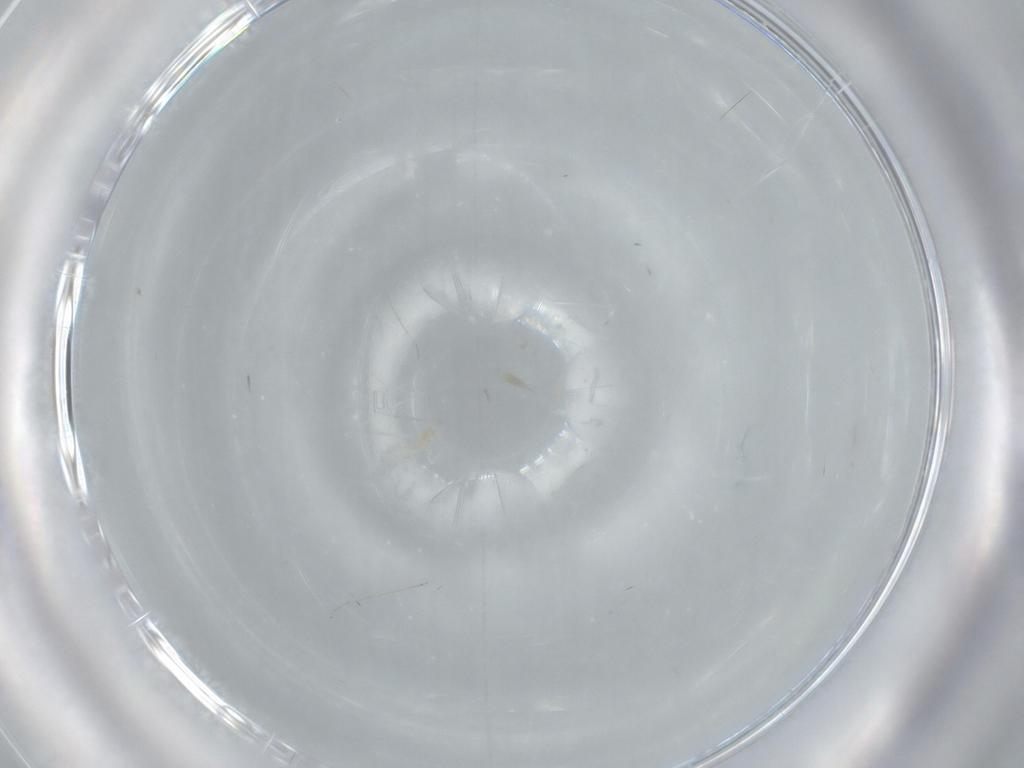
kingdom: Animalia
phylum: Arthropoda
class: Insecta
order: Diptera
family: Cecidomyiidae
